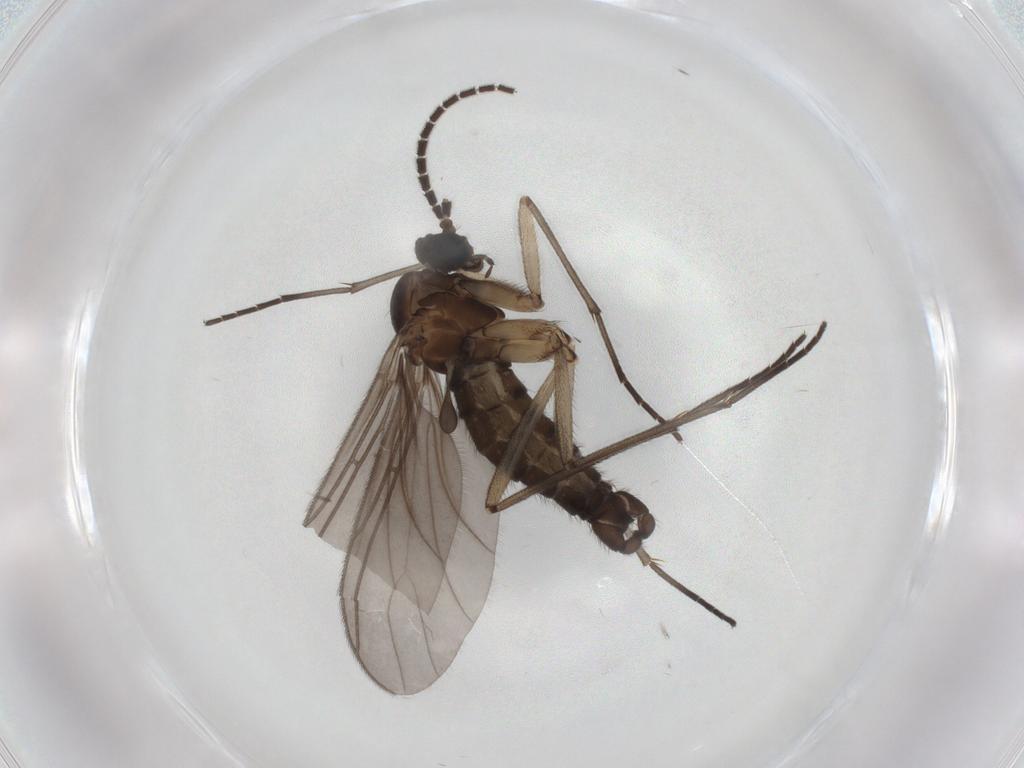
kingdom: Animalia
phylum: Arthropoda
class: Insecta
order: Diptera
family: Sciaridae
